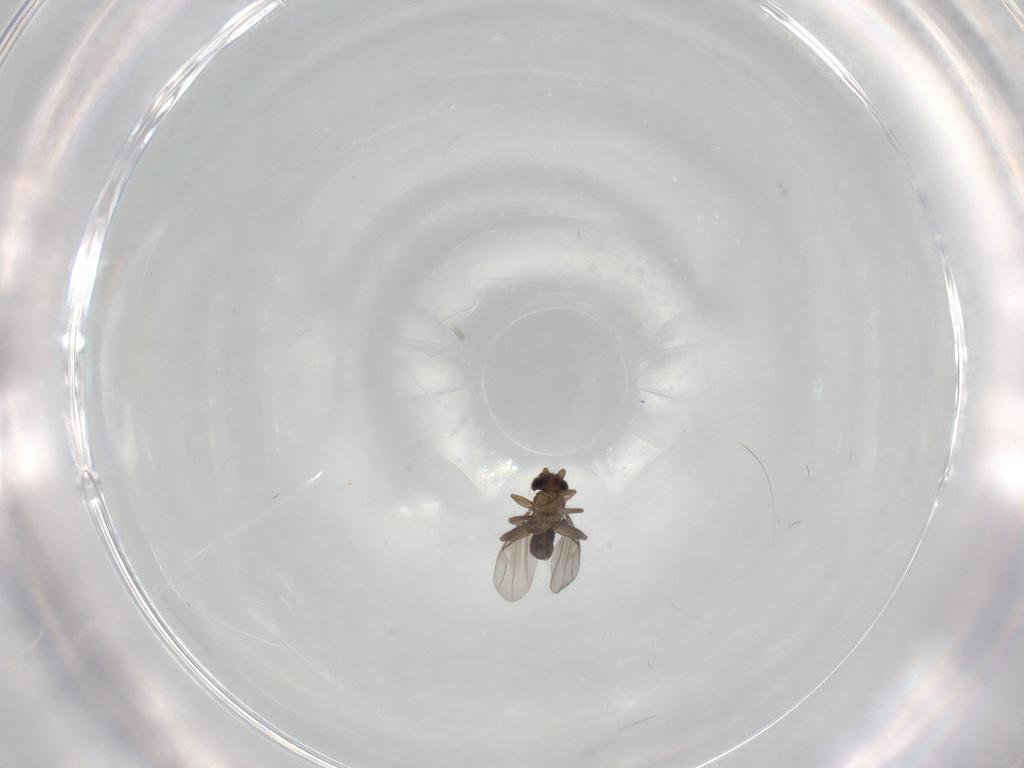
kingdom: Animalia
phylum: Arthropoda
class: Insecta
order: Diptera
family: Limoniidae
